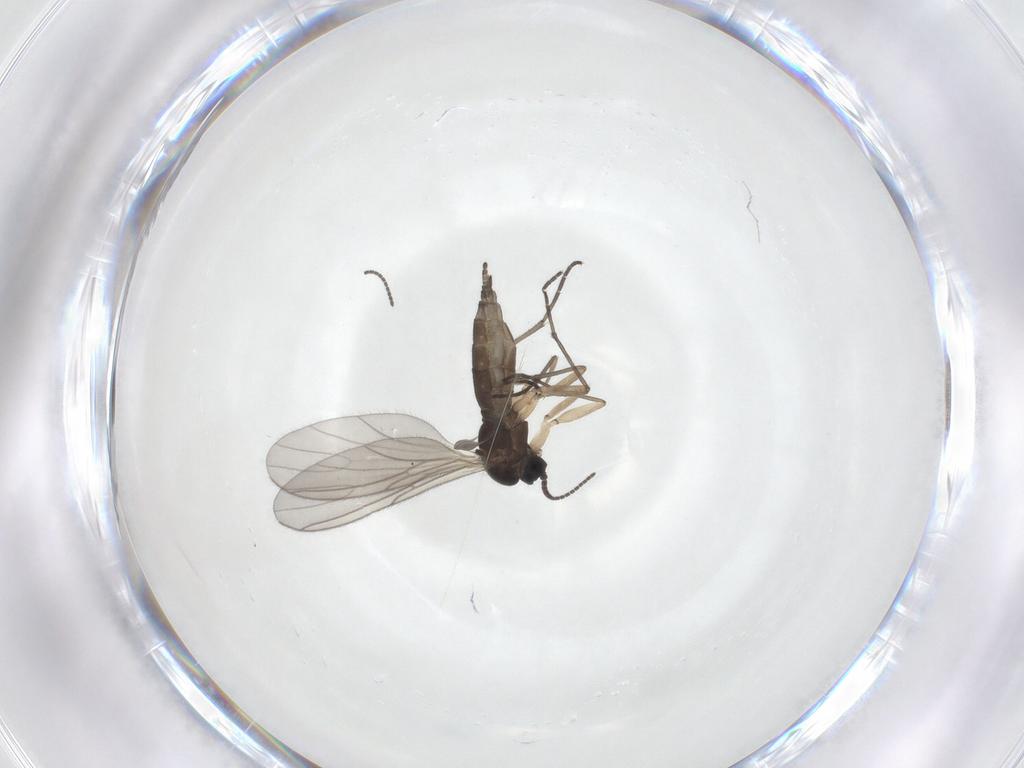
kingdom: Animalia
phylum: Arthropoda
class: Insecta
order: Diptera
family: Sciaridae
